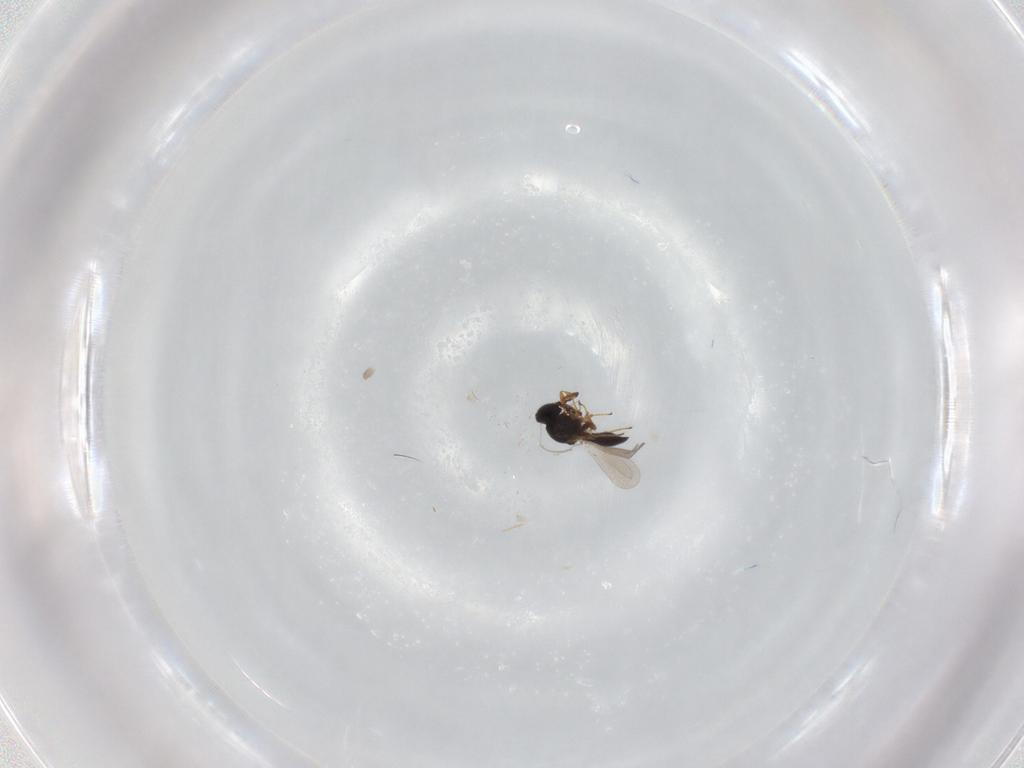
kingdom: Animalia
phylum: Arthropoda
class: Insecta
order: Hymenoptera
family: Platygastridae
